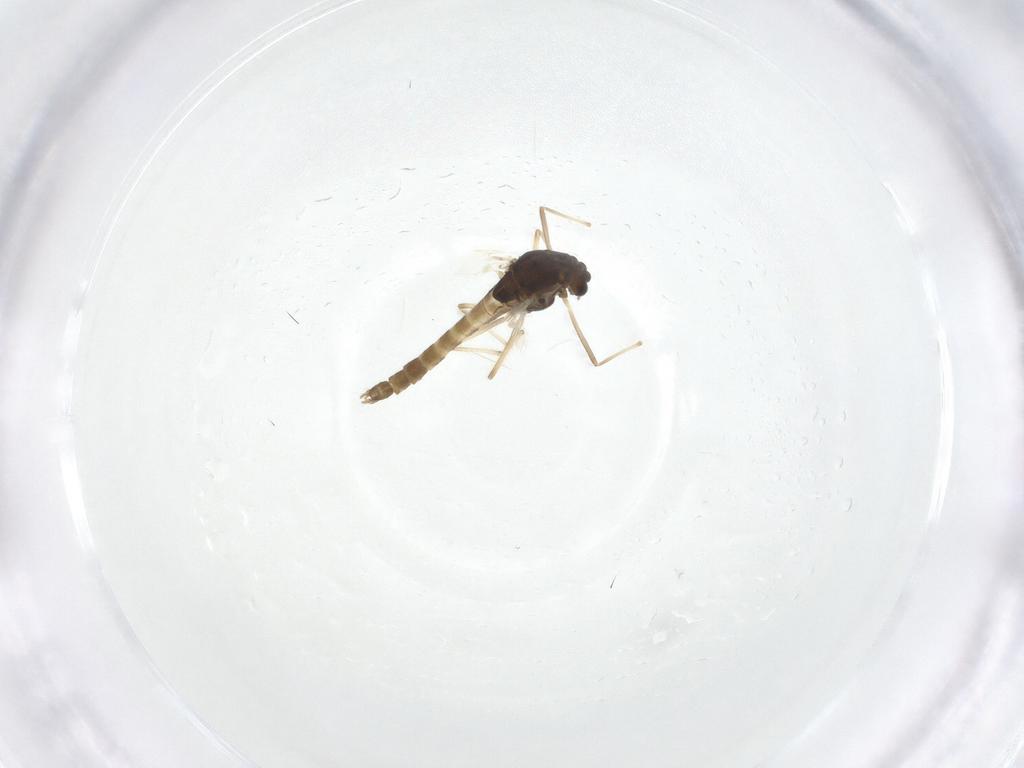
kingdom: Animalia
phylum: Arthropoda
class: Insecta
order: Diptera
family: Chironomidae
